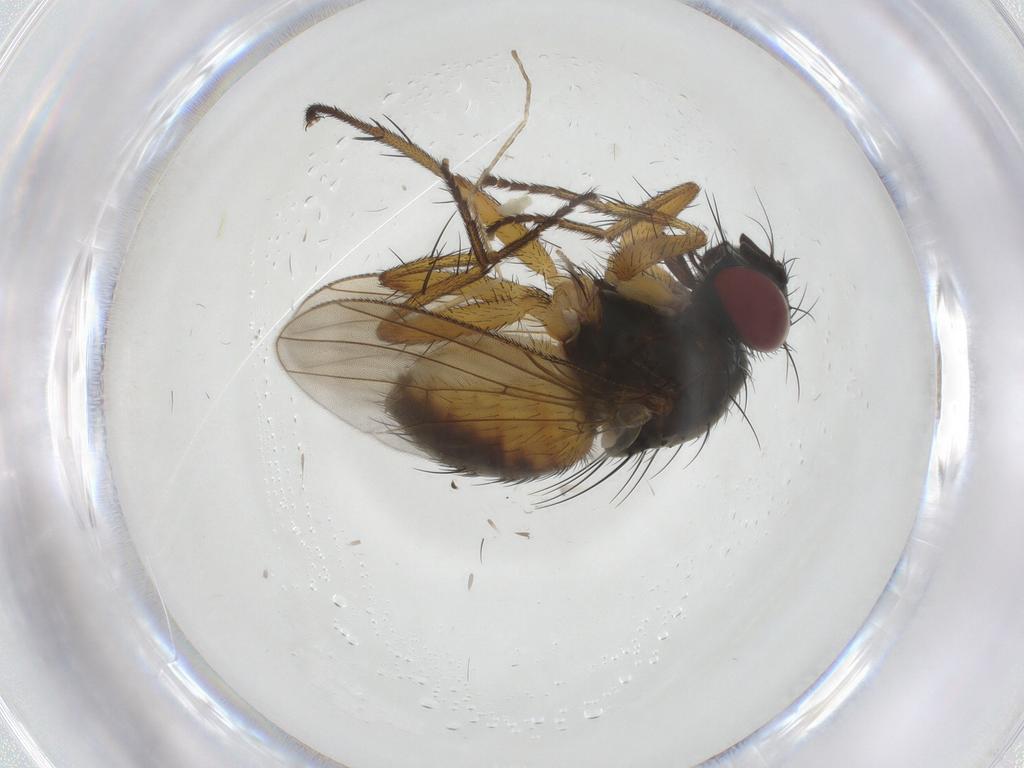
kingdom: Animalia
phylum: Arthropoda
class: Insecta
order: Diptera
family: Muscidae
